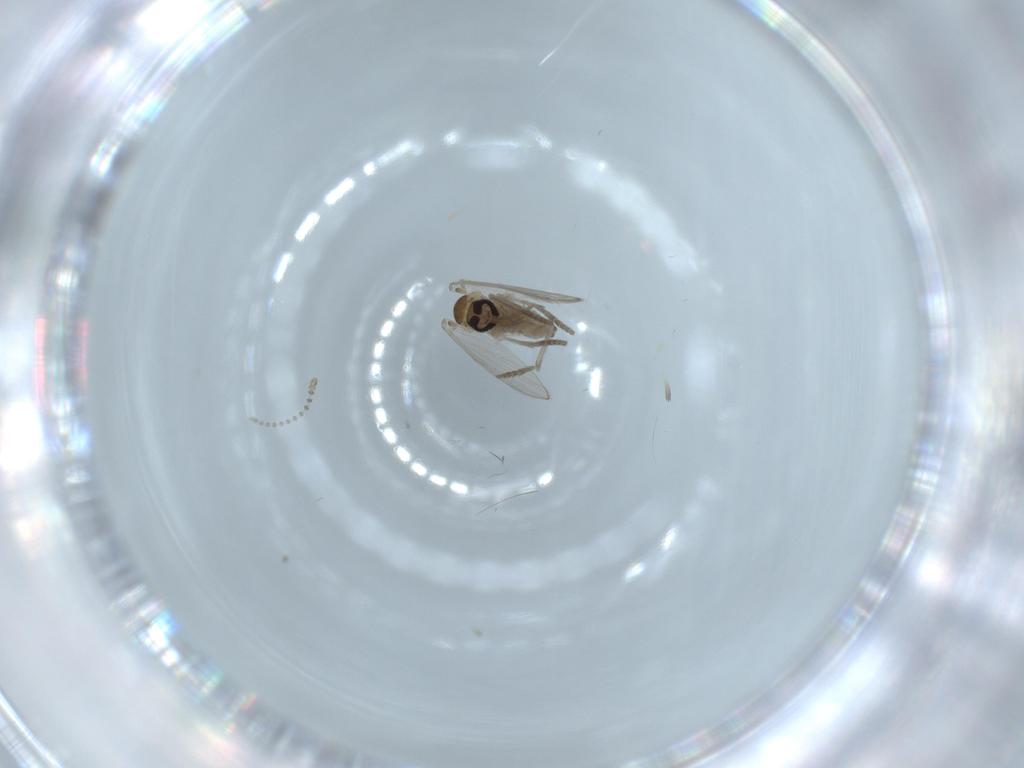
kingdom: Animalia
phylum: Arthropoda
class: Insecta
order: Diptera
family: Psychodidae
